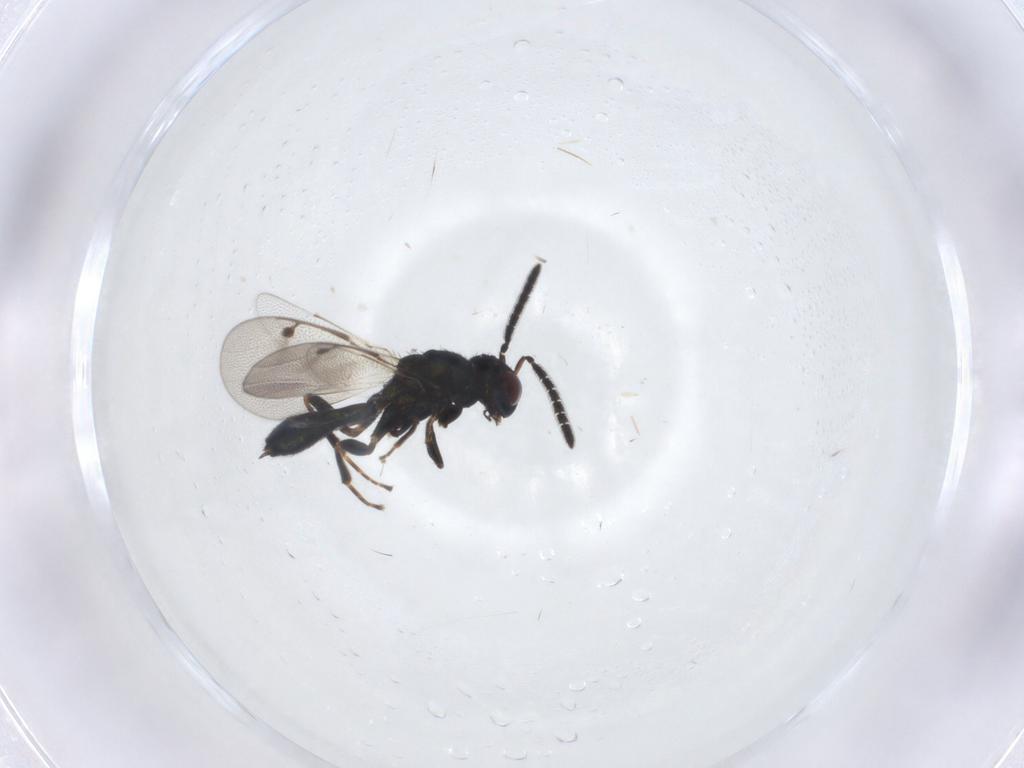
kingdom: Animalia
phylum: Arthropoda
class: Insecta
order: Hymenoptera
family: Pteromalidae
